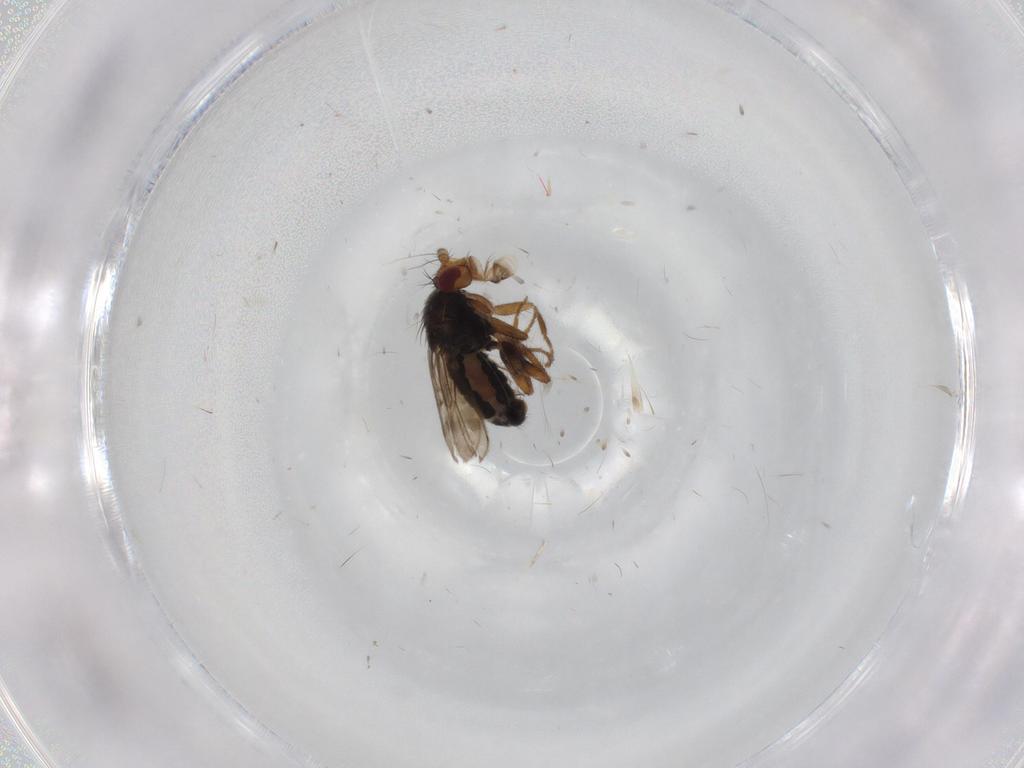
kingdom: Animalia
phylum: Arthropoda
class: Insecta
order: Diptera
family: Sphaeroceridae
